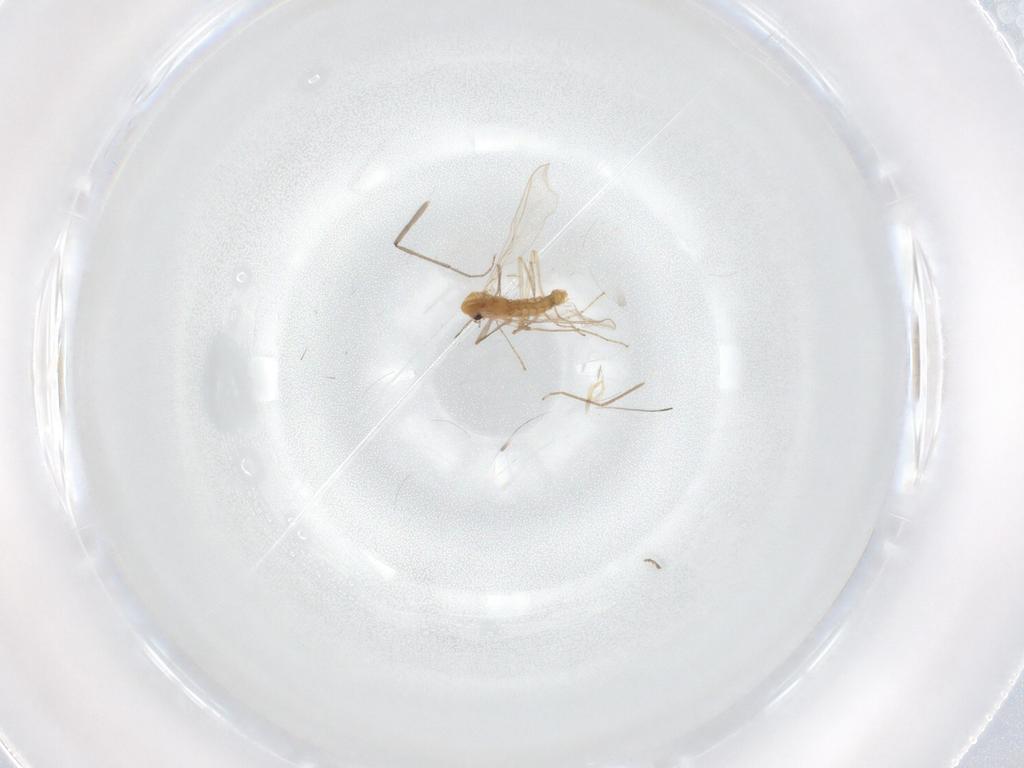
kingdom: Animalia
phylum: Arthropoda
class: Insecta
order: Diptera
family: Chironomidae
